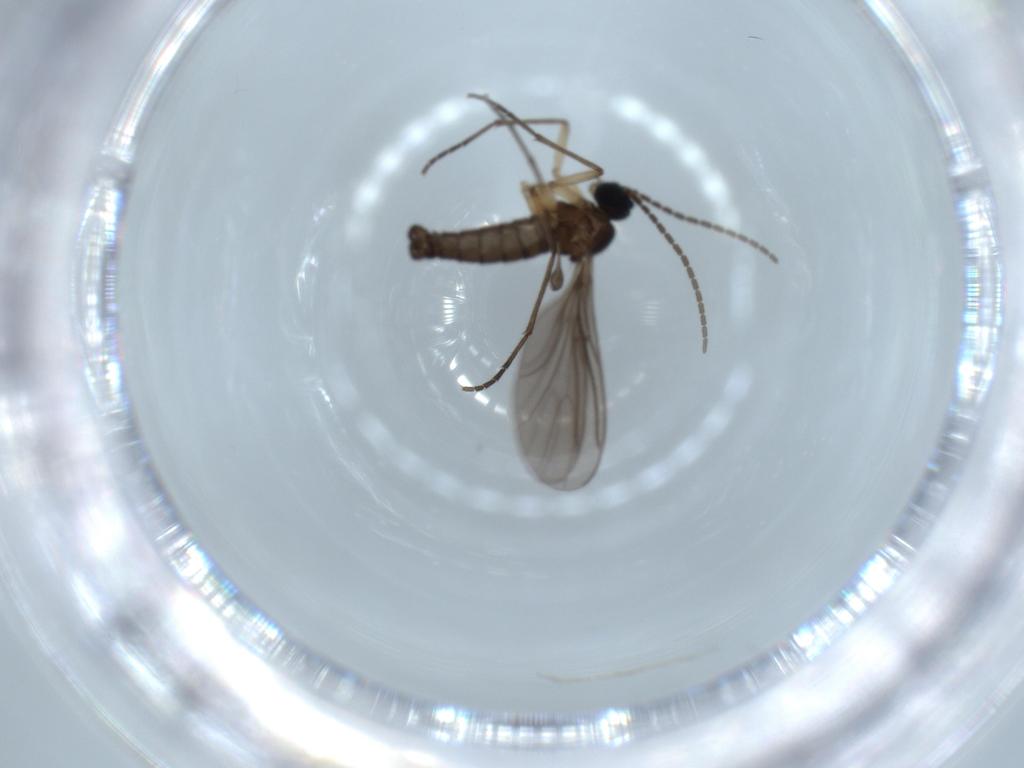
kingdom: Animalia
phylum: Arthropoda
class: Insecta
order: Diptera
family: Sciaridae
